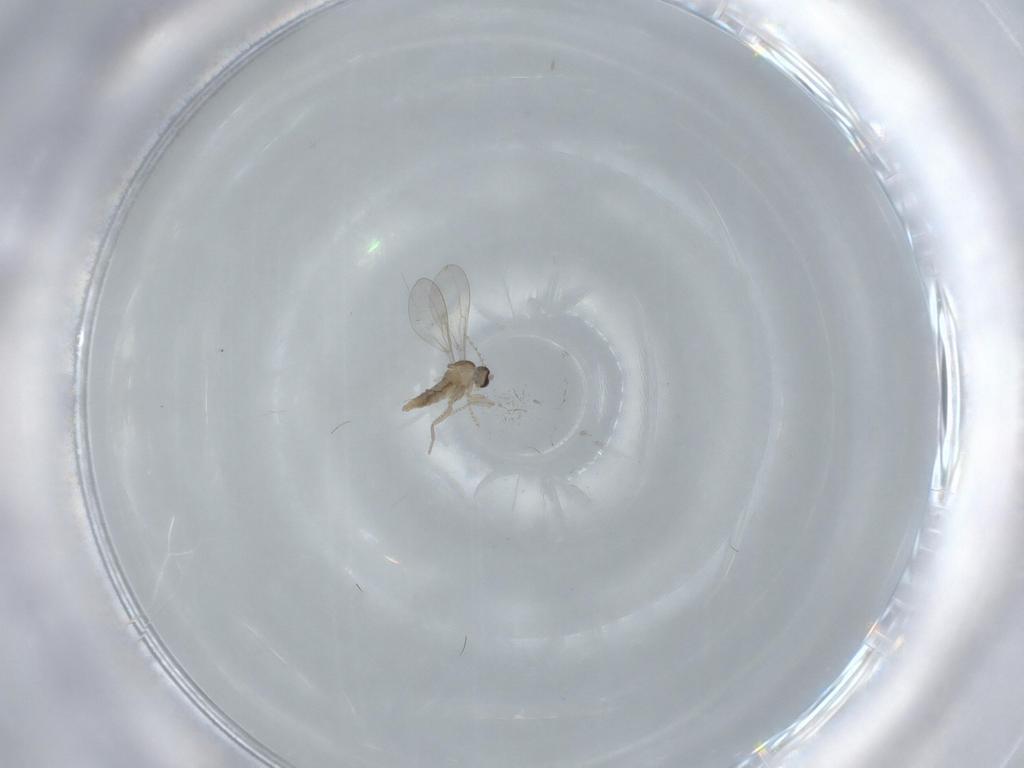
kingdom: Animalia
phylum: Arthropoda
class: Insecta
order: Diptera
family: Cecidomyiidae
